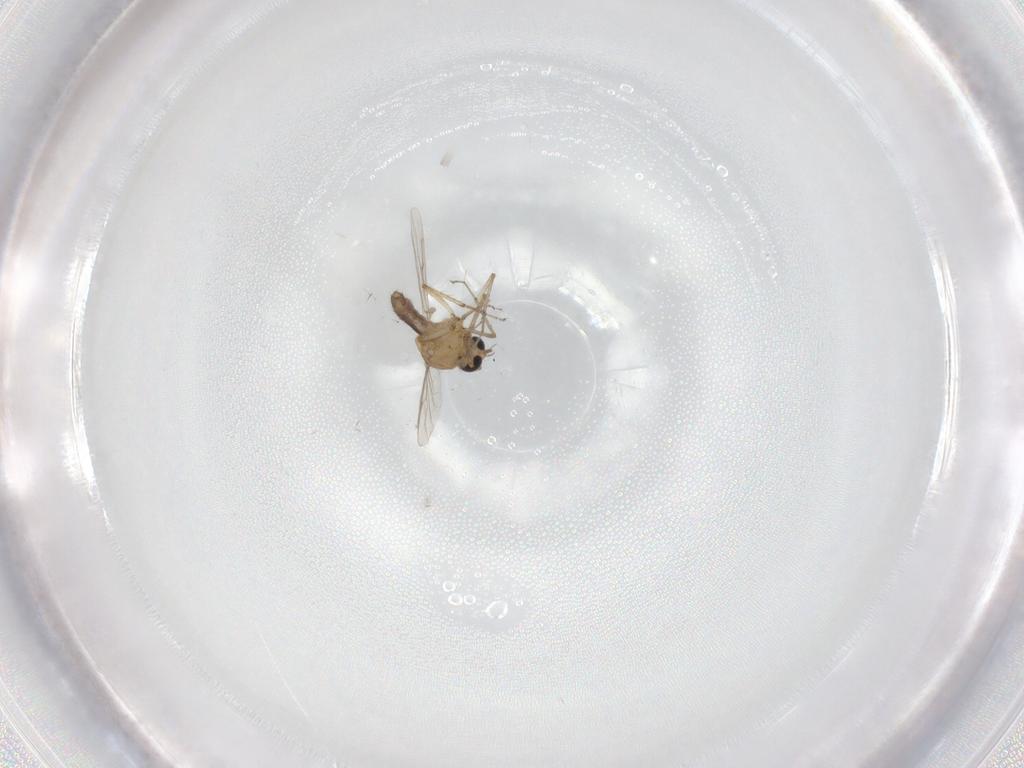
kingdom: Animalia
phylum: Arthropoda
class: Insecta
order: Diptera
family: Ceratopogonidae
